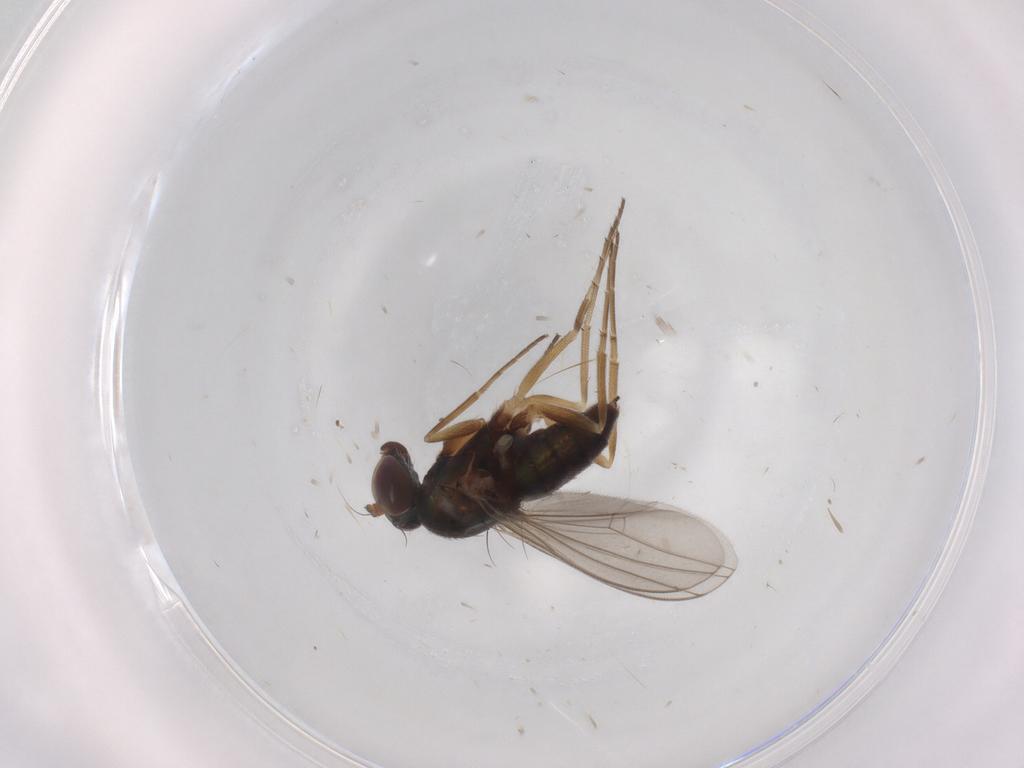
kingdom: Animalia
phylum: Arthropoda
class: Insecta
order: Diptera
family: Dolichopodidae
